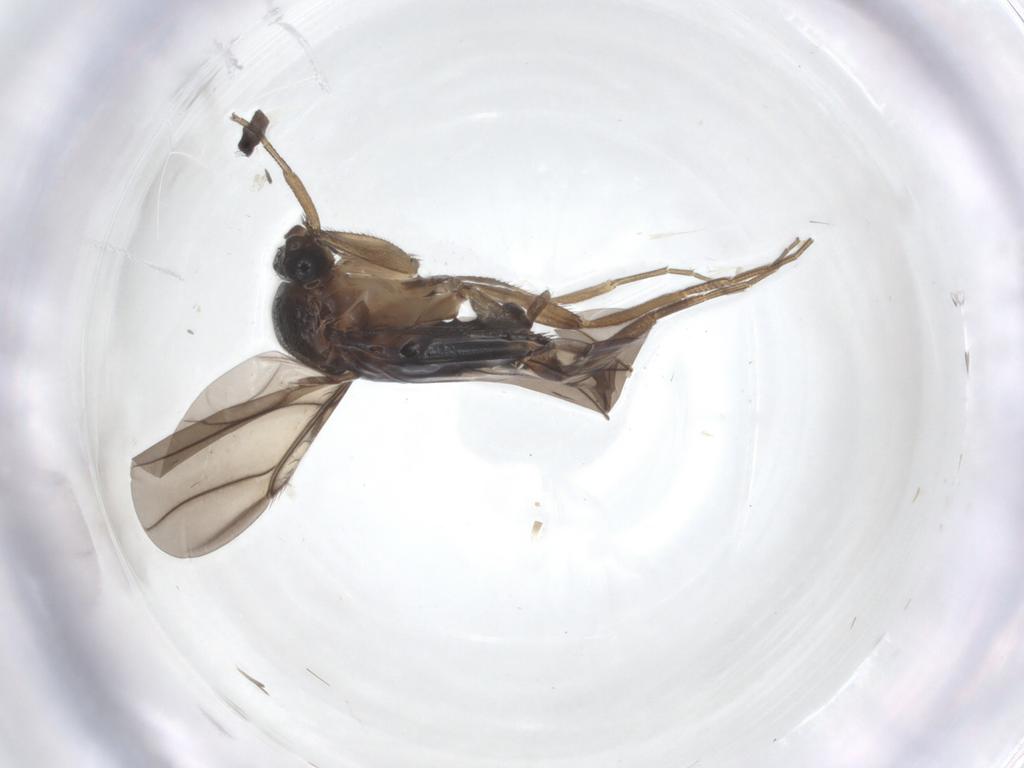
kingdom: Animalia
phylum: Arthropoda
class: Insecta
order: Diptera
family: Phoridae
